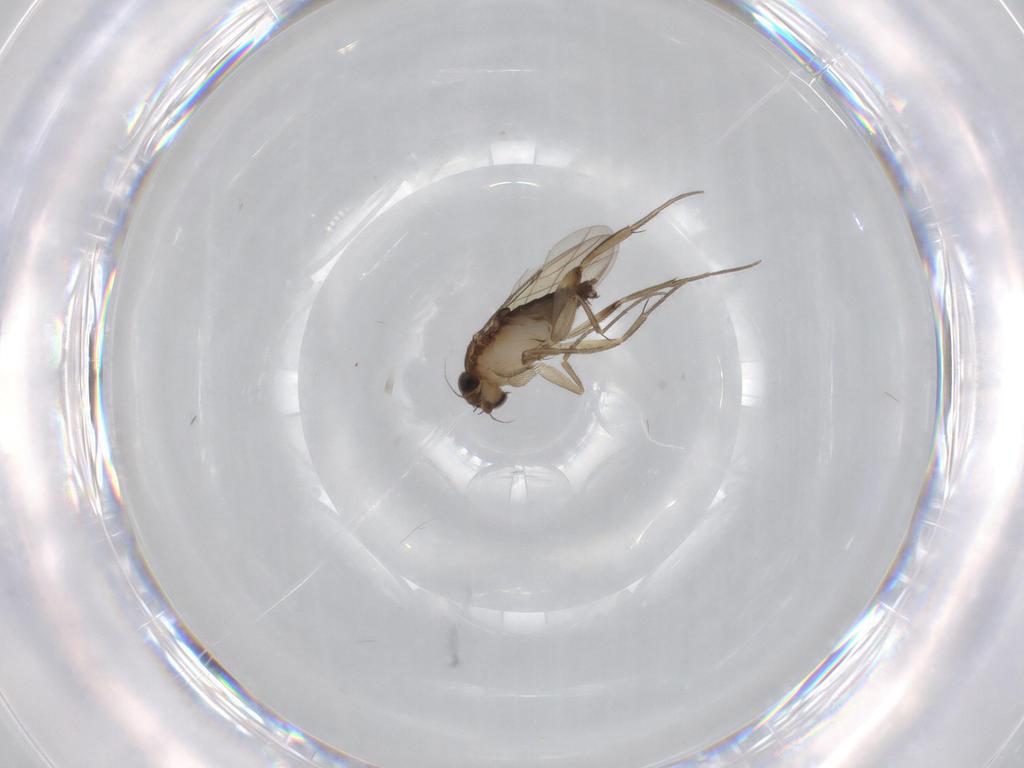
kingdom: Animalia
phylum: Arthropoda
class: Insecta
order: Diptera
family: Phoridae
